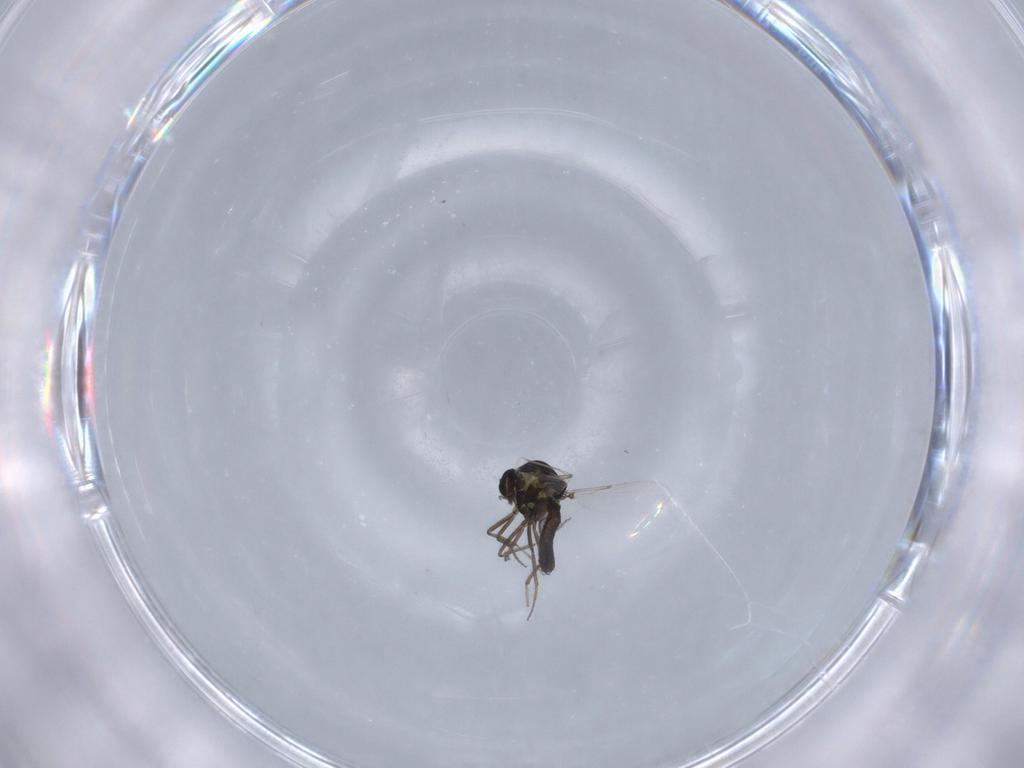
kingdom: Animalia
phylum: Arthropoda
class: Insecta
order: Diptera
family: Ceratopogonidae
